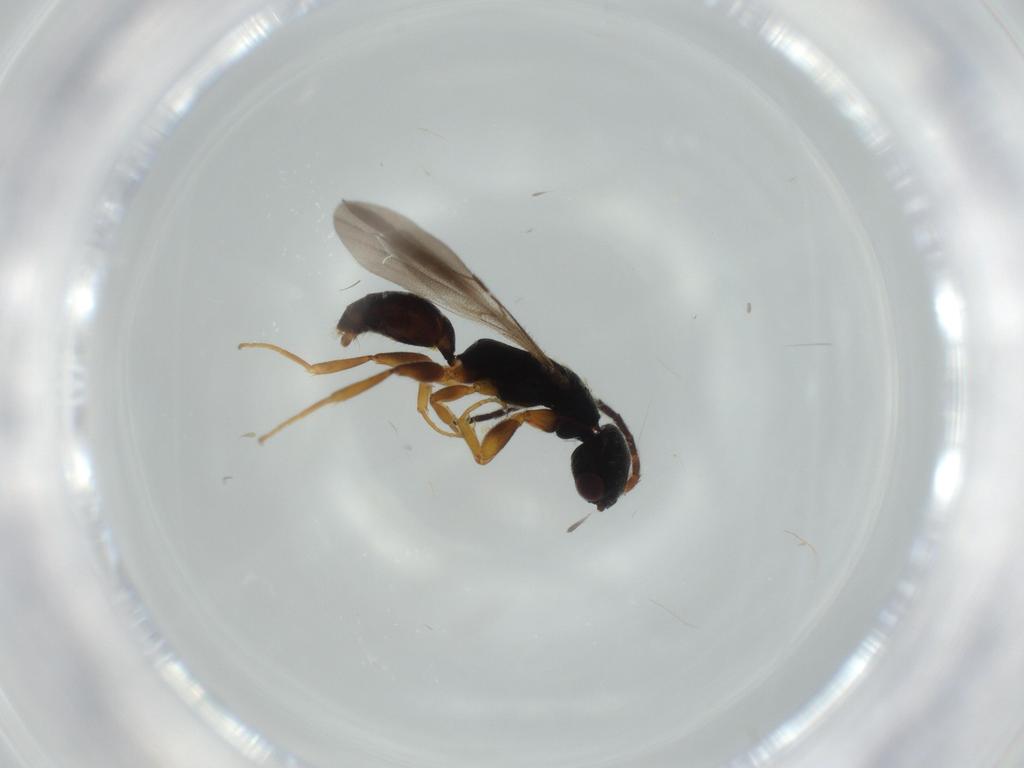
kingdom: Animalia
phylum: Arthropoda
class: Insecta
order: Hymenoptera
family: Bethylidae
